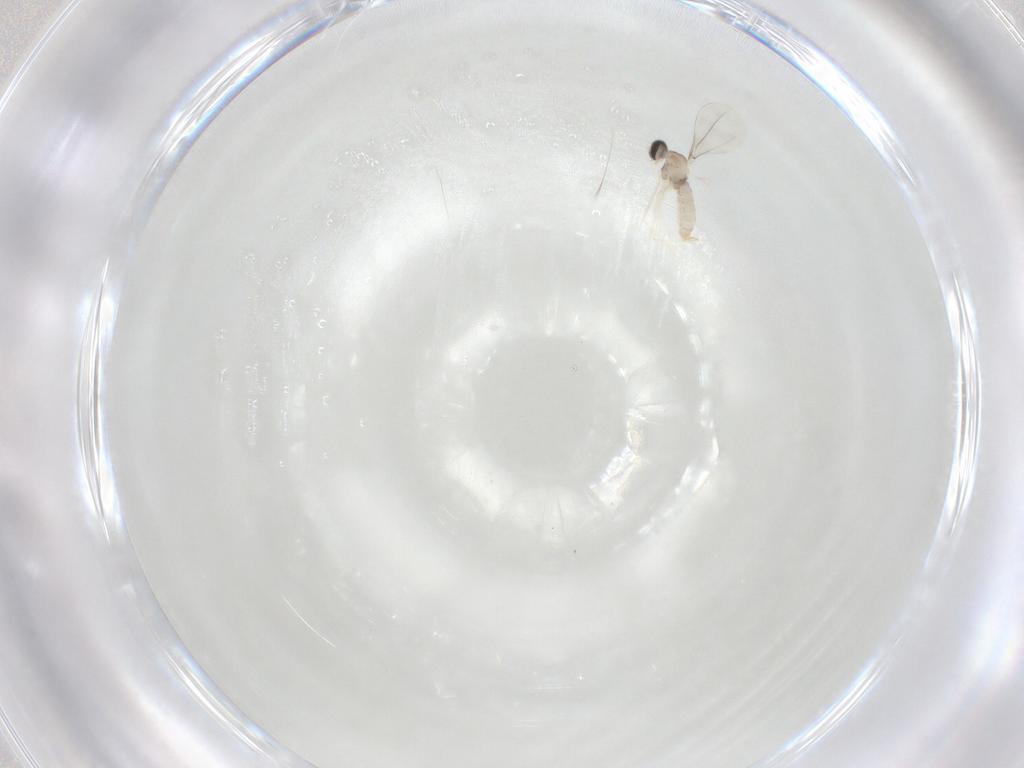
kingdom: Animalia
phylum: Arthropoda
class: Insecta
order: Diptera
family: Cecidomyiidae
